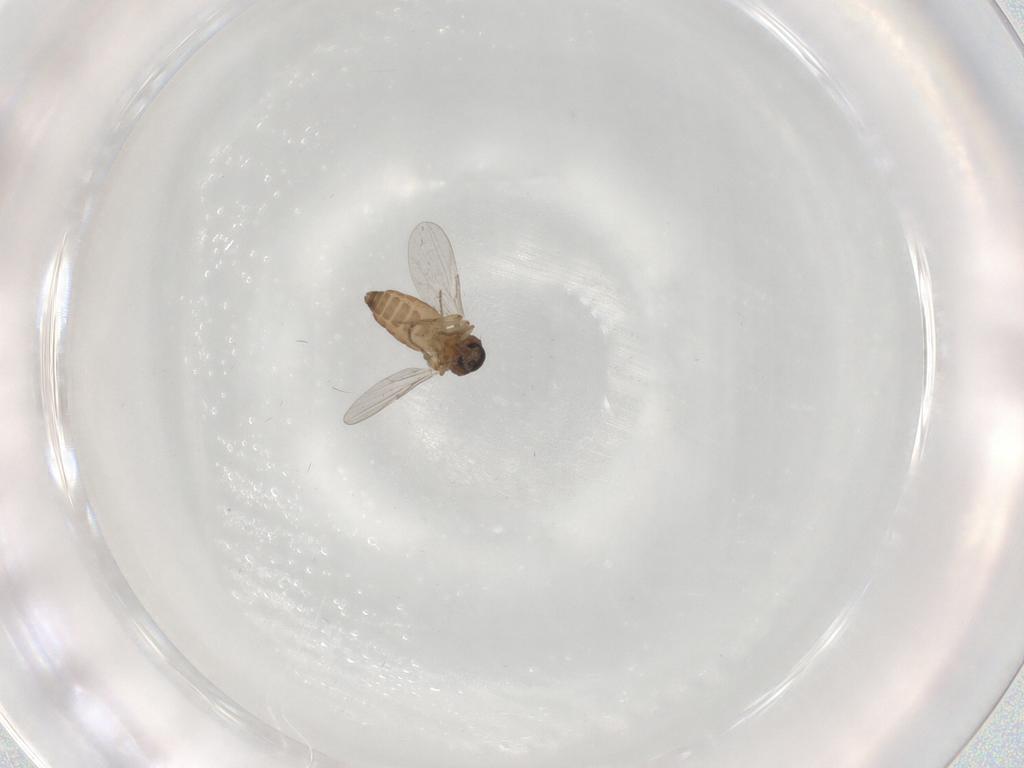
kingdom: Animalia
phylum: Arthropoda
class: Insecta
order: Diptera
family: Ceratopogonidae
